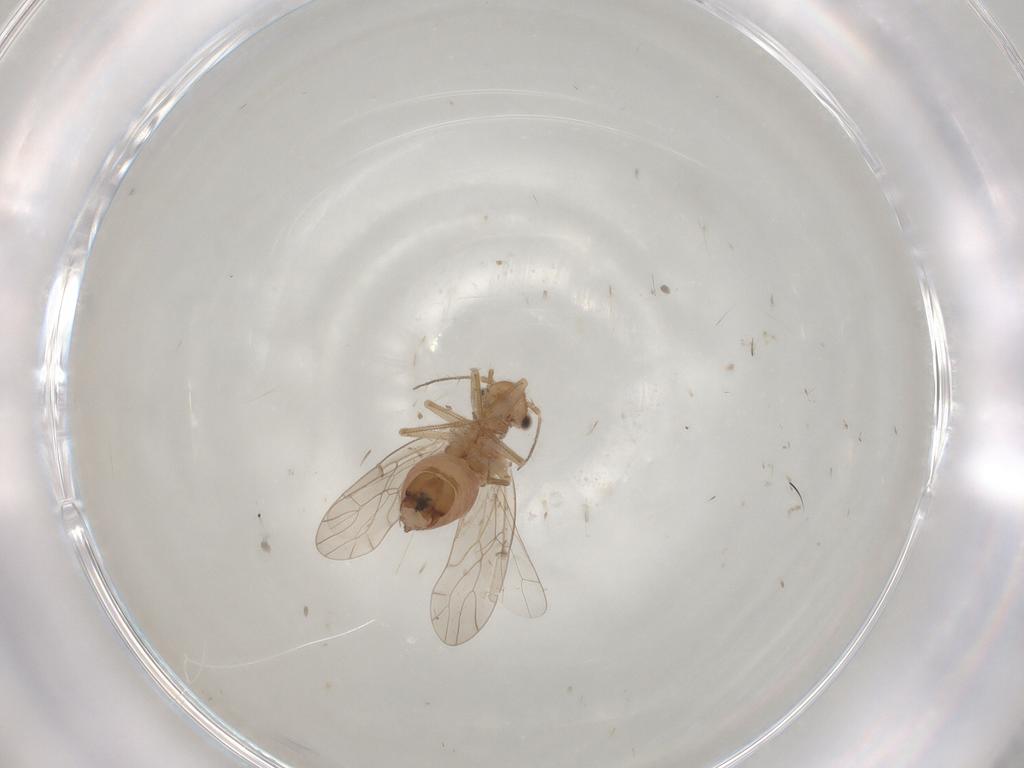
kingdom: Animalia
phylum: Arthropoda
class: Insecta
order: Psocodea
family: Ectopsocidae
